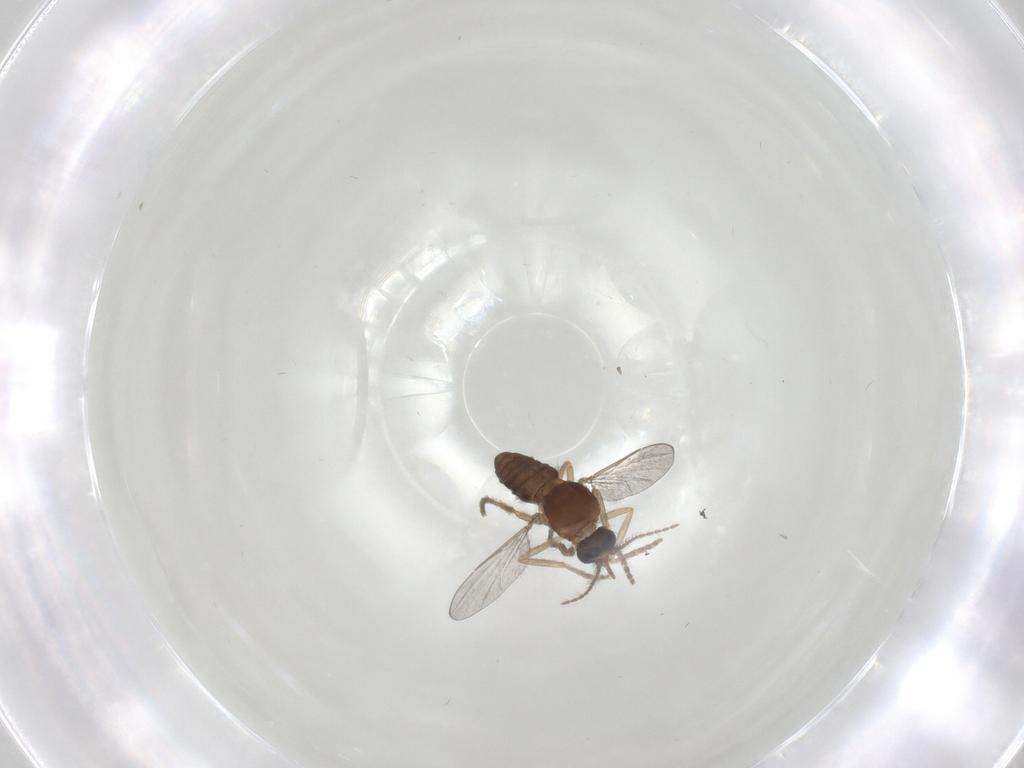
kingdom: Animalia
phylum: Arthropoda
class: Insecta
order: Diptera
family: Ceratopogonidae
